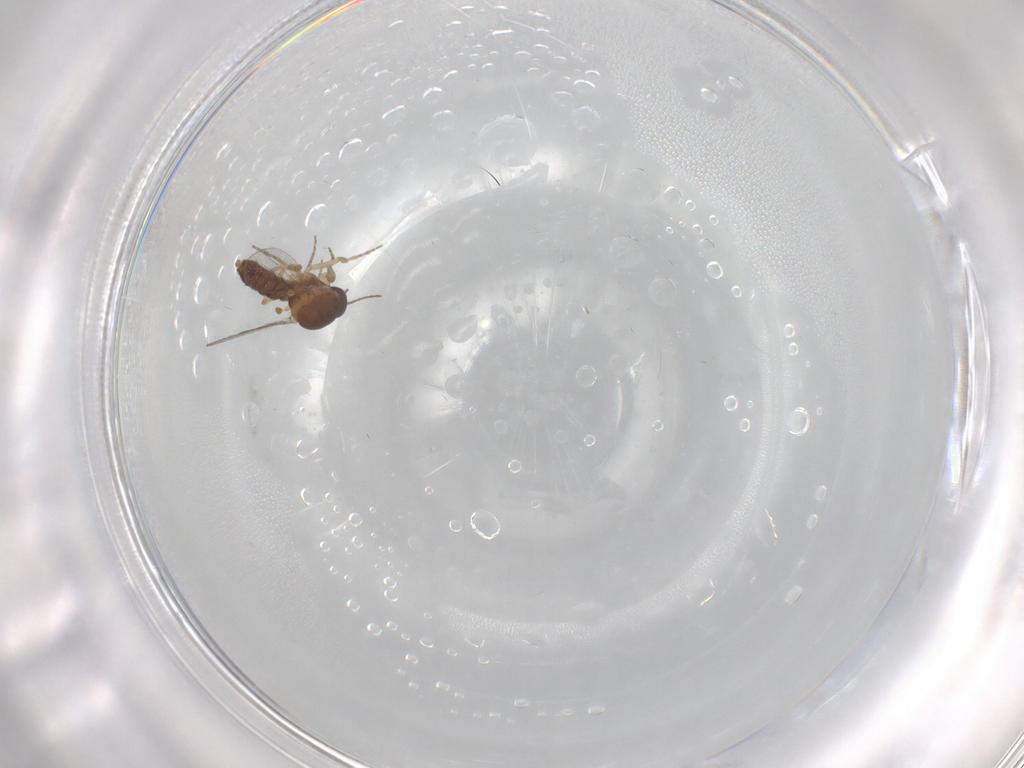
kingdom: Animalia
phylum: Arthropoda
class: Insecta
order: Diptera
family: Ceratopogonidae
